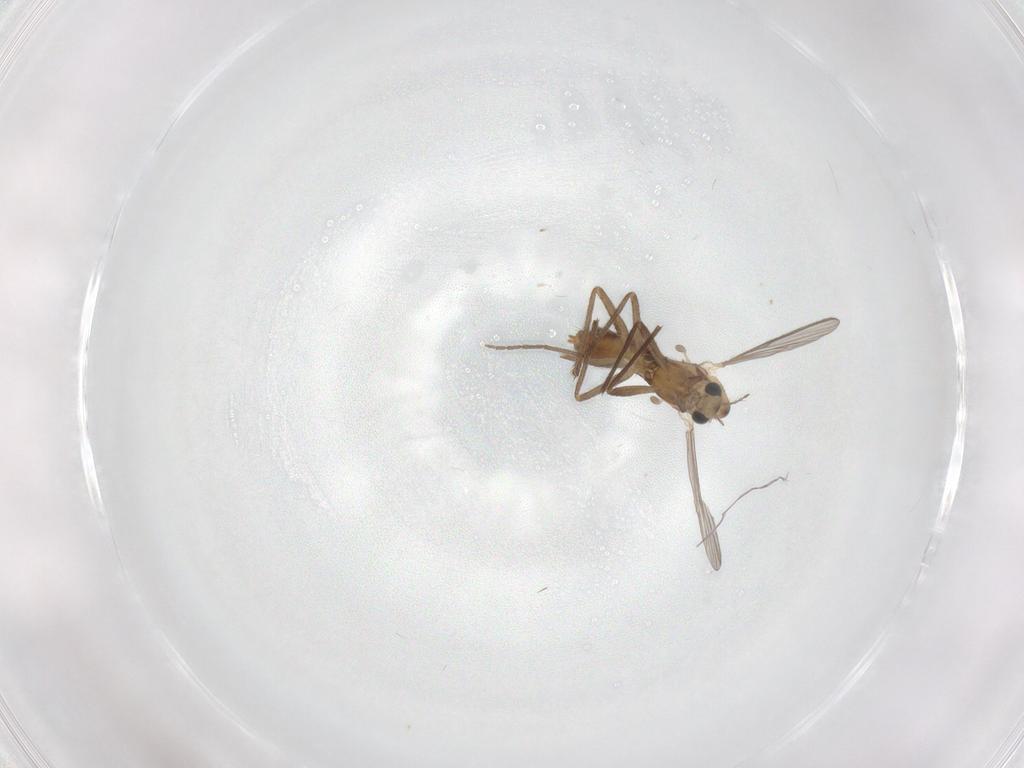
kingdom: Animalia
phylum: Arthropoda
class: Insecta
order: Diptera
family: Chironomidae
